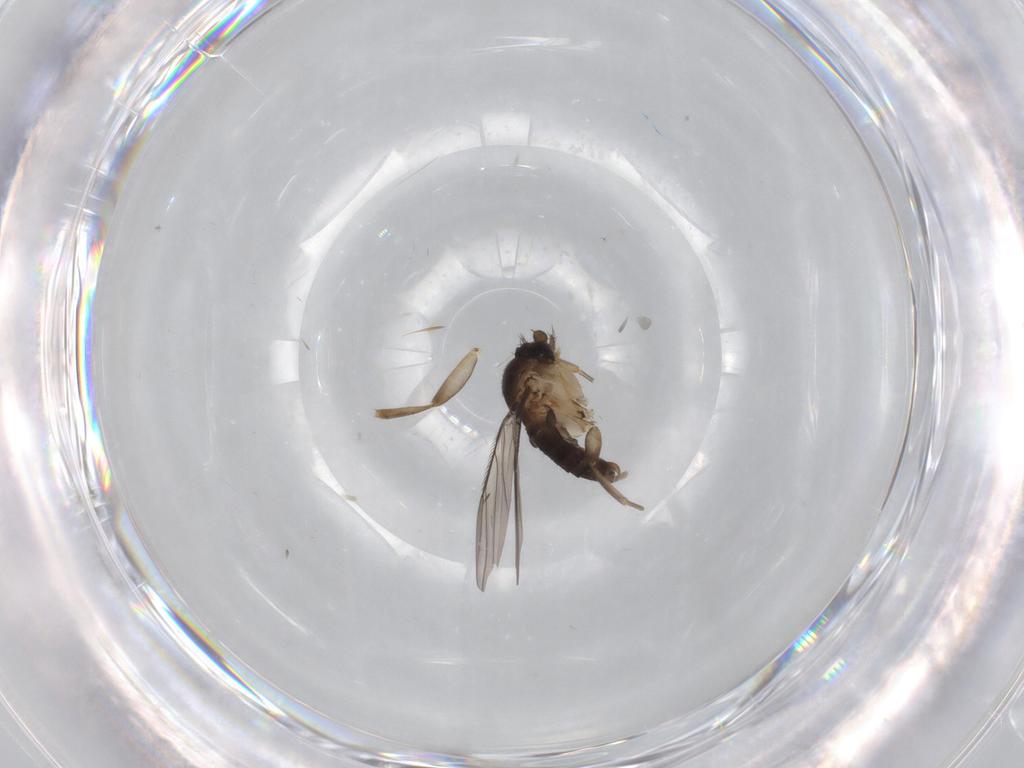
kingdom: Animalia
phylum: Arthropoda
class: Insecta
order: Diptera
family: Phoridae
